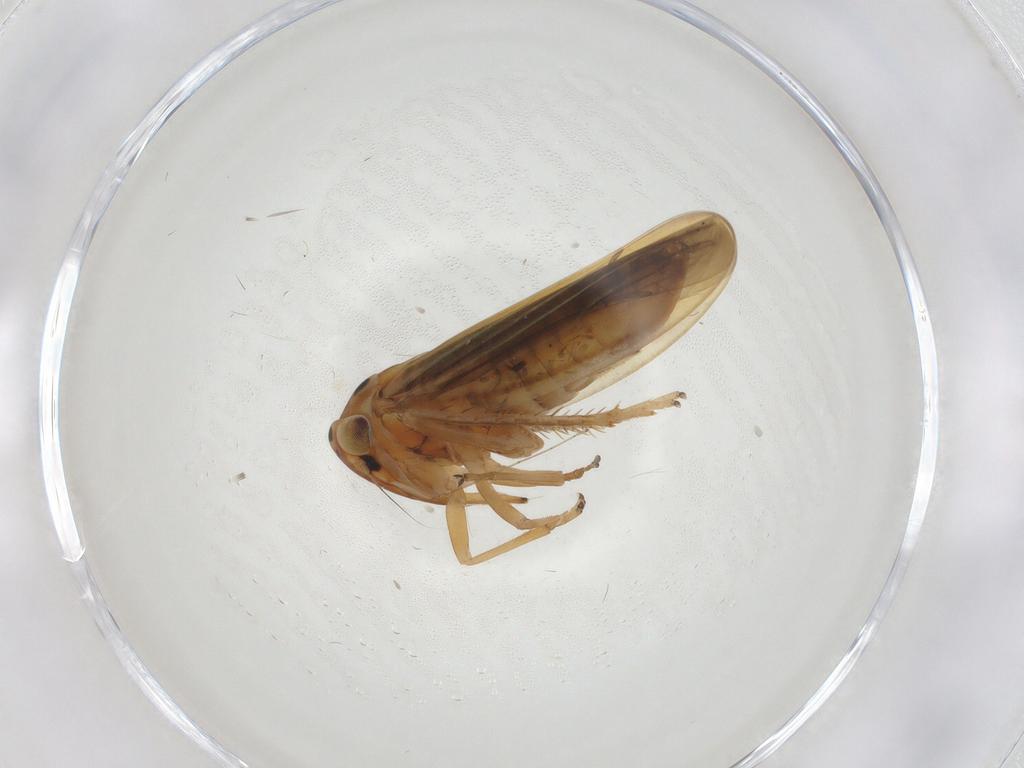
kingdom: Animalia
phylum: Arthropoda
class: Insecta
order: Hemiptera
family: Cicadellidae
